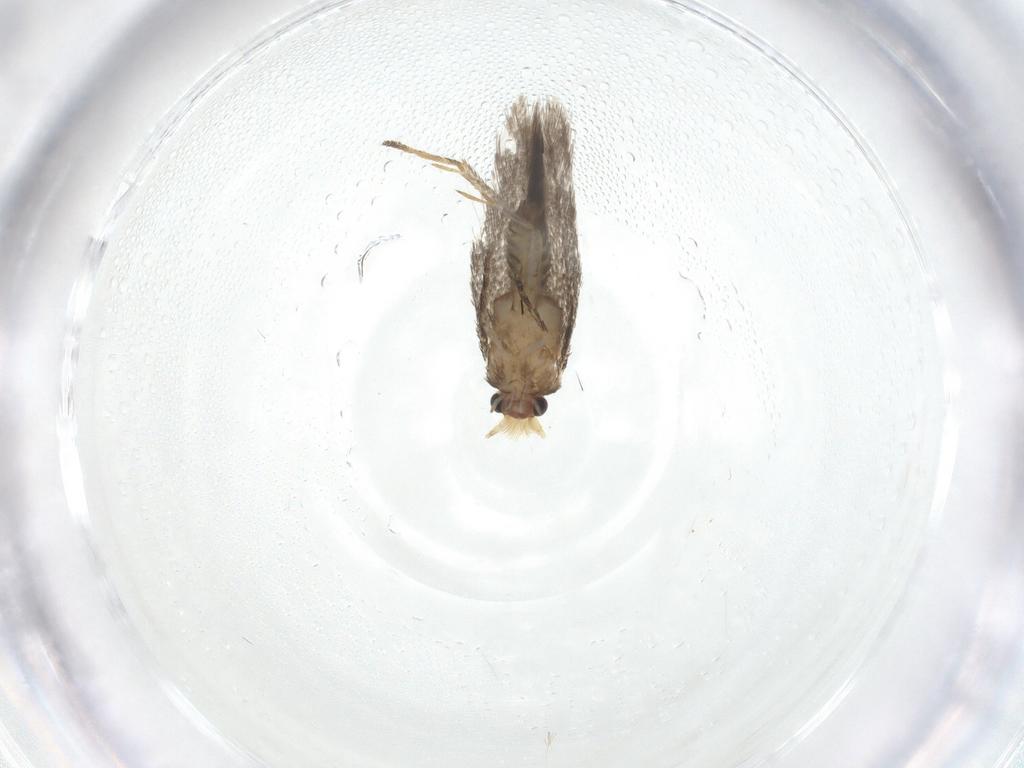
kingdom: Animalia
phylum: Arthropoda
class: Insecta
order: Lepidoptera
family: Nepticulidae
